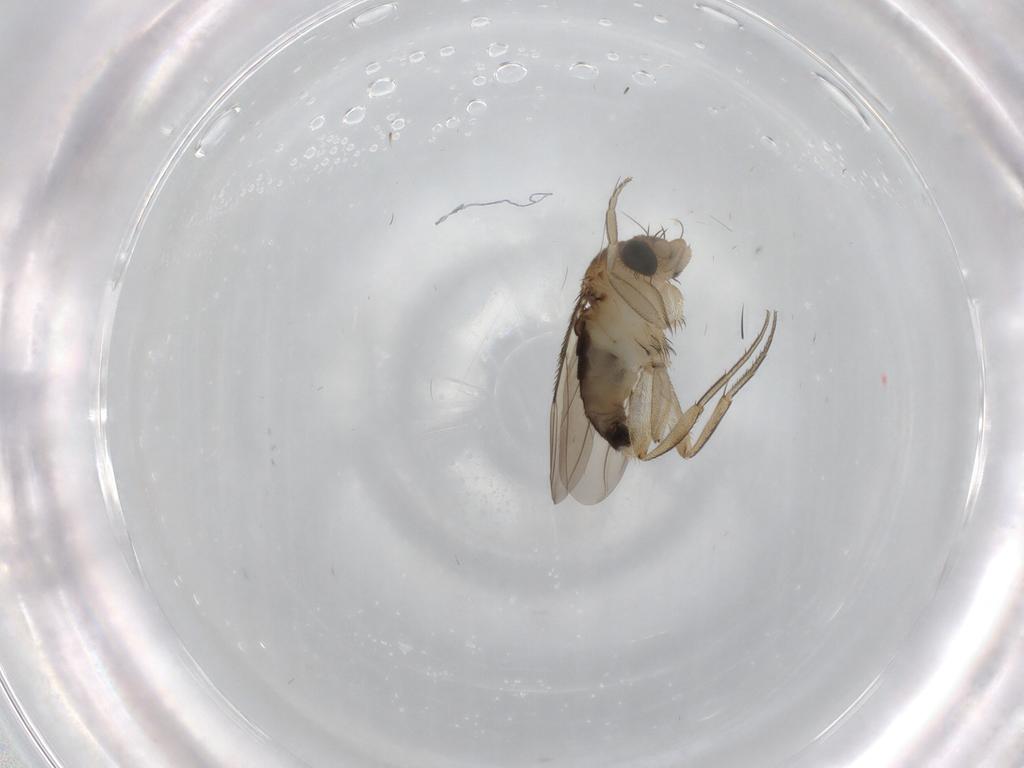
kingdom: Animalia
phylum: Arthropoda
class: Insecta
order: Diptera
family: Phoridae
